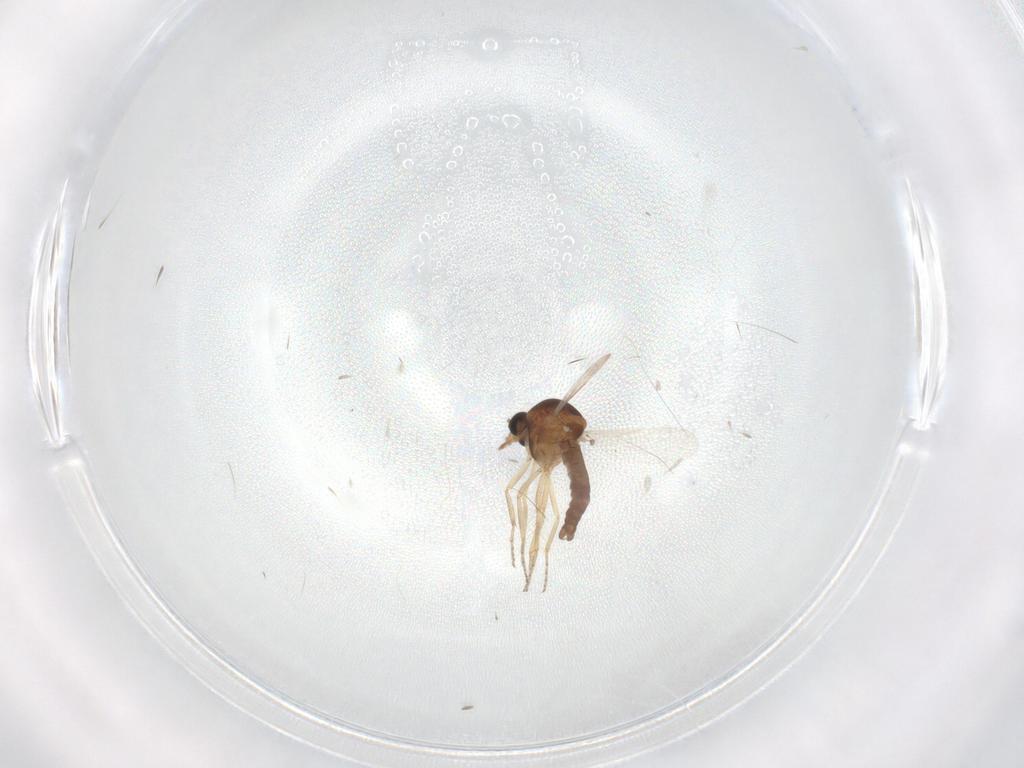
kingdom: Animalia
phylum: Arthropoda
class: Insecta
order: Diptera
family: Ceratopogonidae
